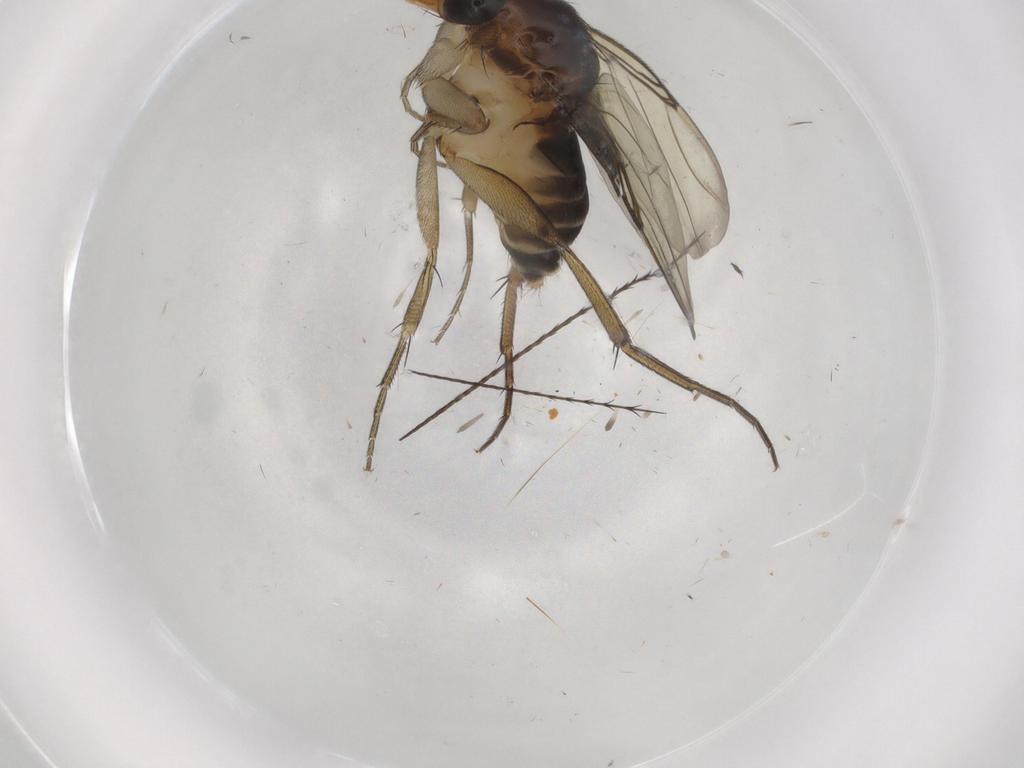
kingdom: Animalia
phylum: Arthropoda
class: Insecta
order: Diptera
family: Phoridae
